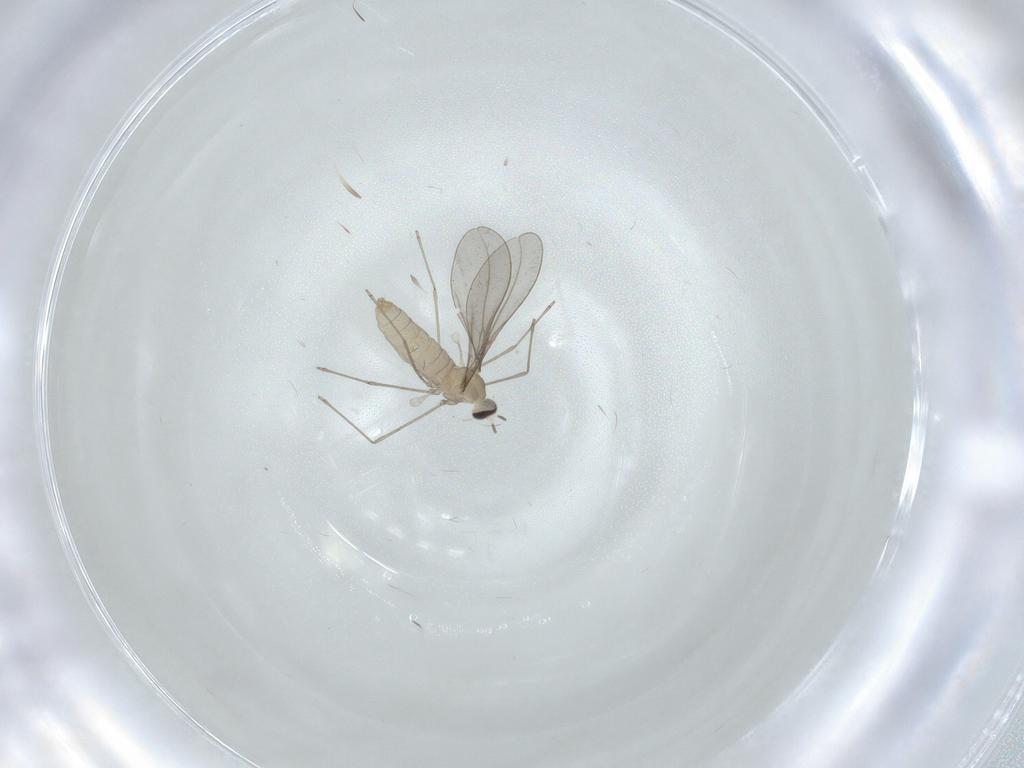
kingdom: Animalia
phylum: Arthropoda
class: Insecta
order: Diptera
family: Cecidomyiidae
